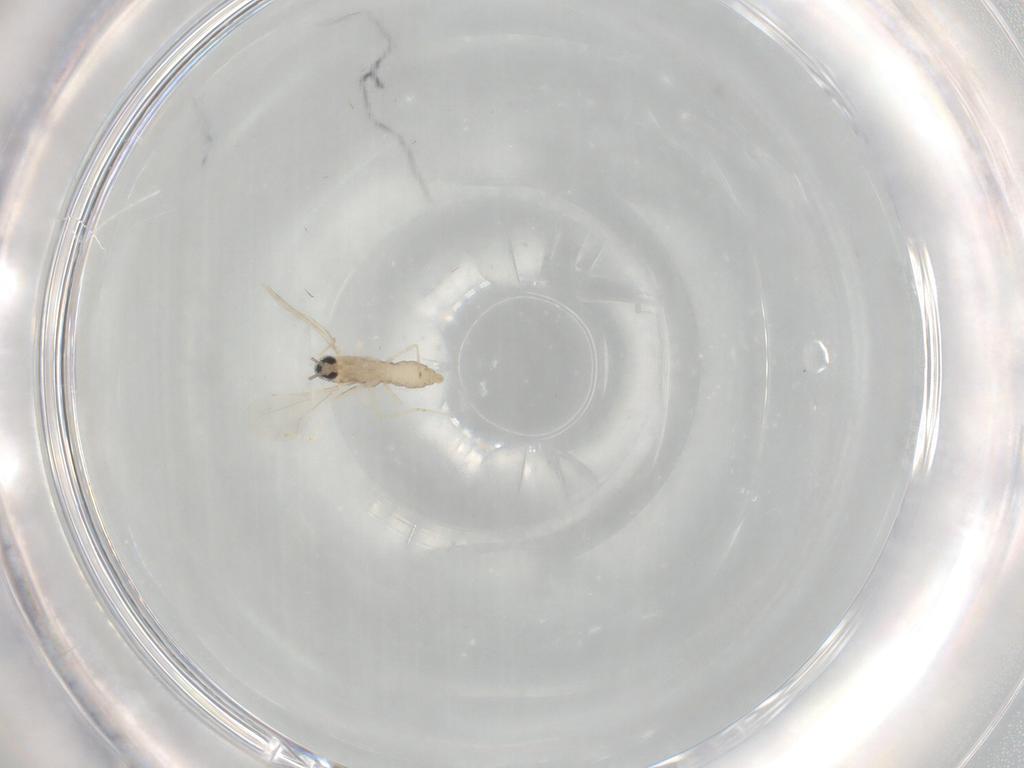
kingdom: Animalia
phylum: Arthropoda
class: Insecta
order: Diptera
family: Cecidomyiidae
